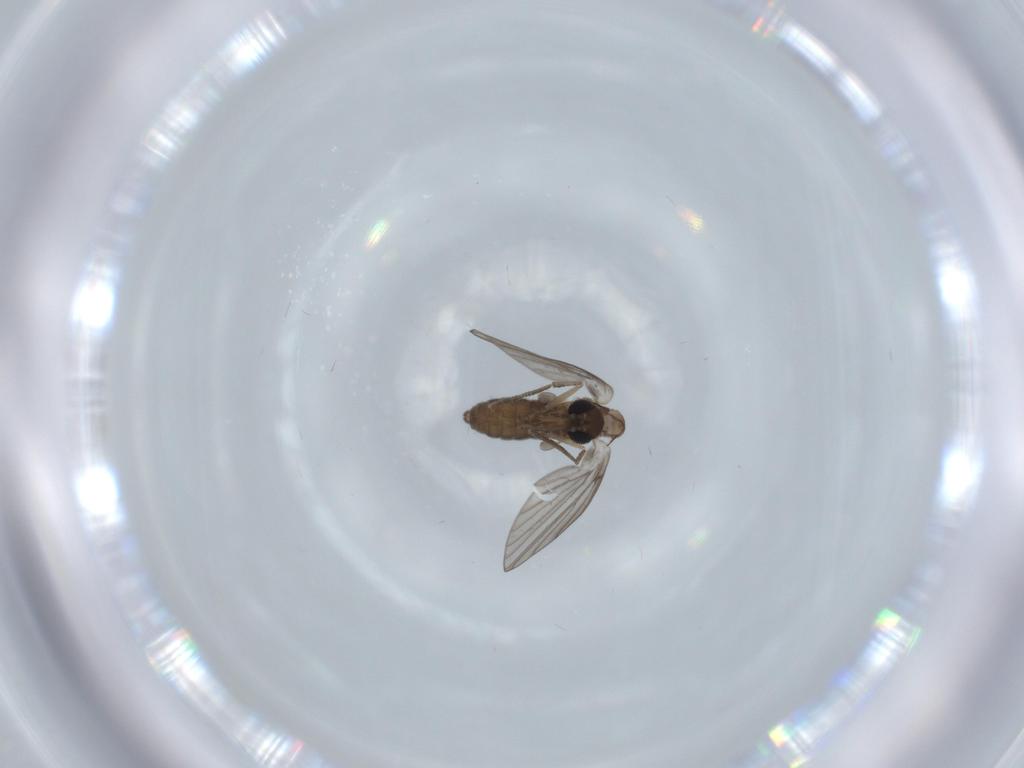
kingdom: Animalia
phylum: Arthropoda
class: Insecta
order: Diptera
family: Psychodidae
